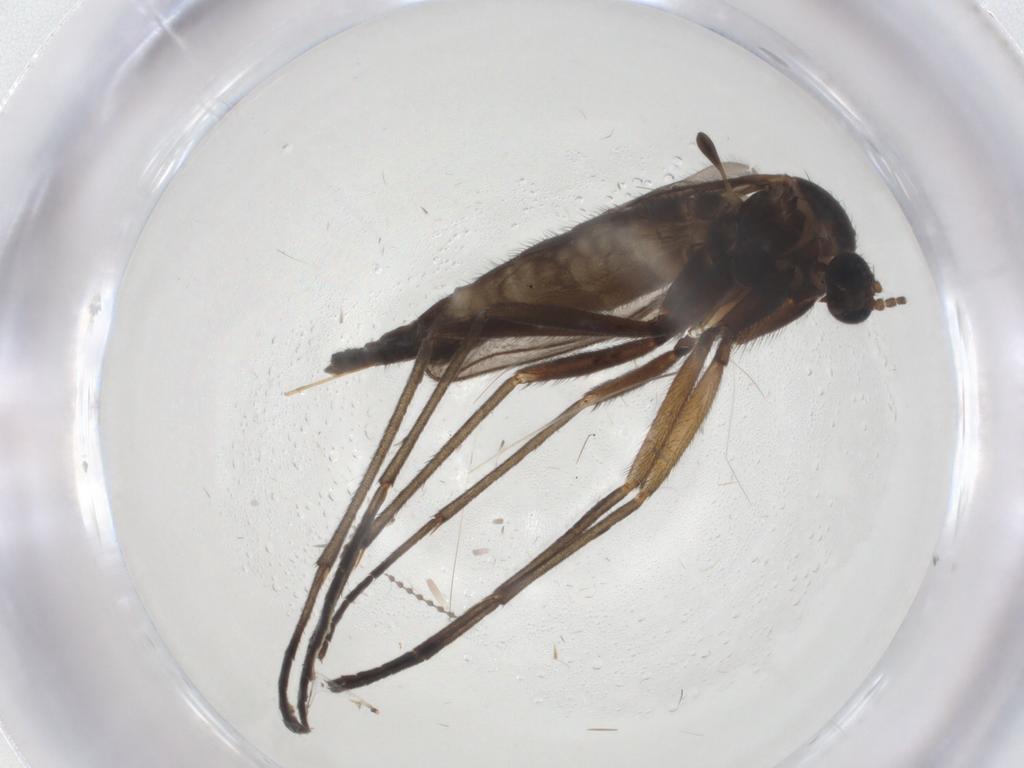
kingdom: Animalia
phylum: Arthropoda
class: Insecta
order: Diptera
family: Sciaridae
